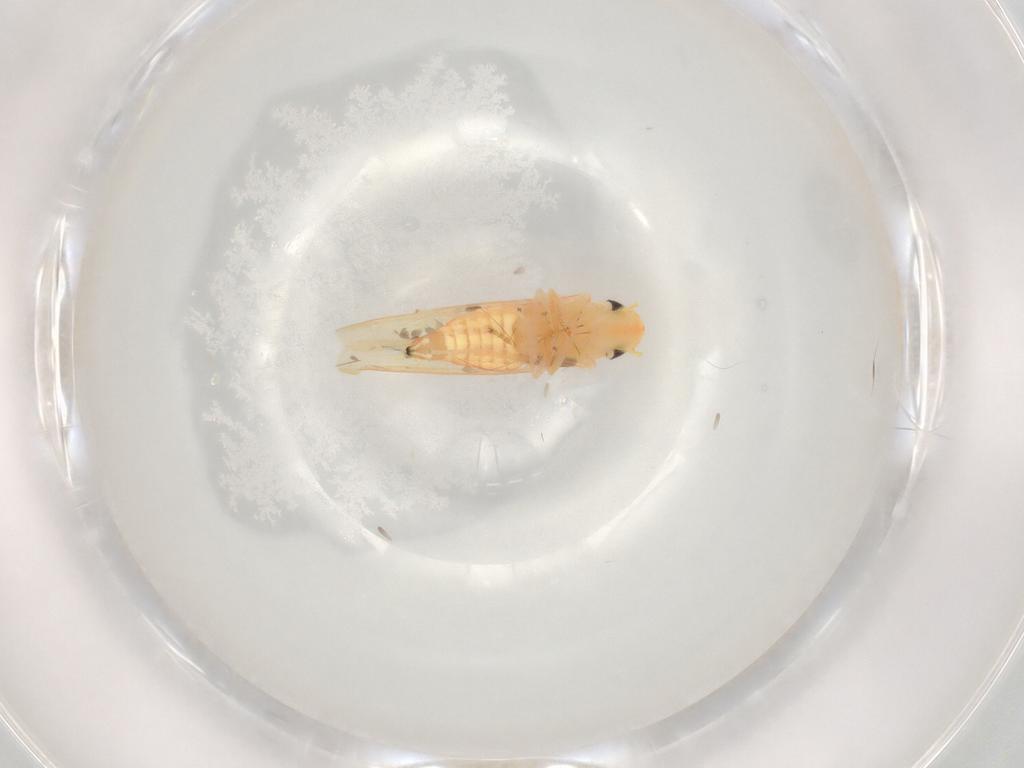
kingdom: Animalia
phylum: Arthropoda
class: Insecta
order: Hemiptera
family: Cicadellidae
